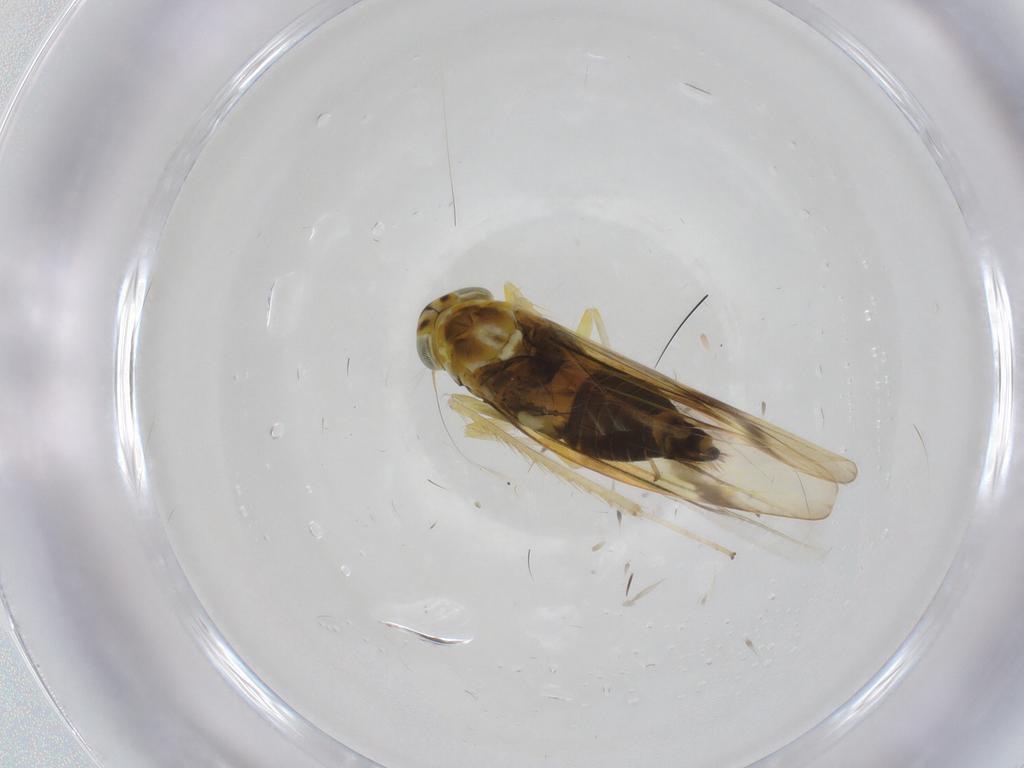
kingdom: Animalia
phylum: Arthropoda
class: Insecta
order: Hemiptera
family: Cicadellidae
